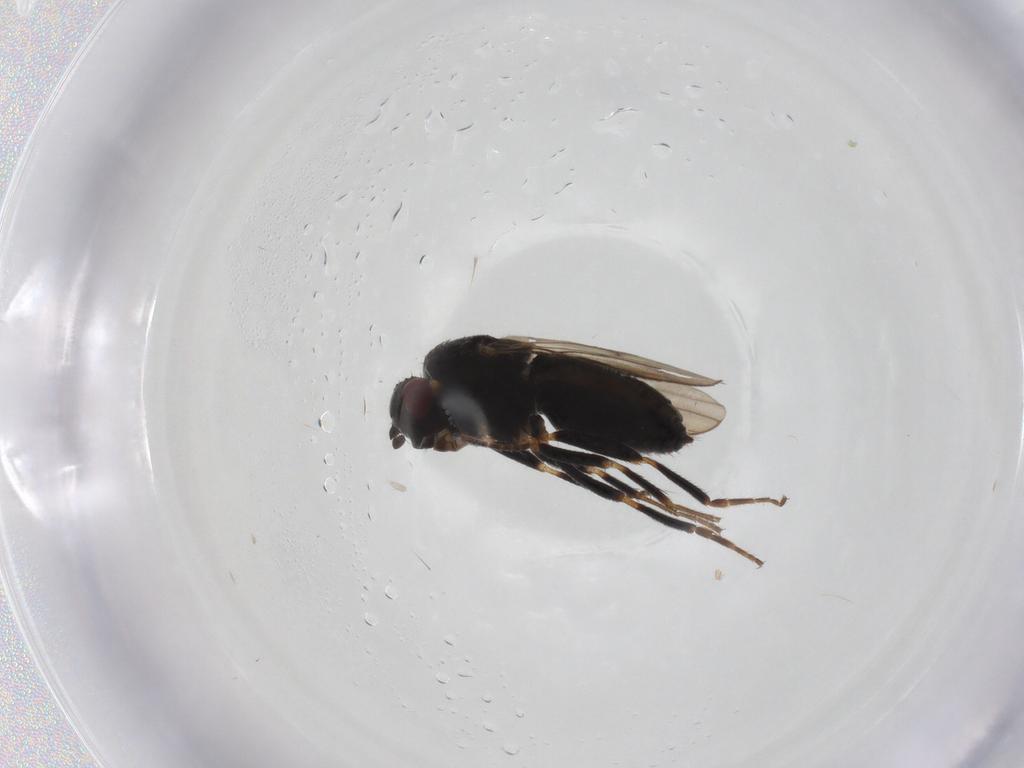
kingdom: Animalia
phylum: Arthropoda
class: Insecta
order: Diptera
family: Sphaeroceridae
